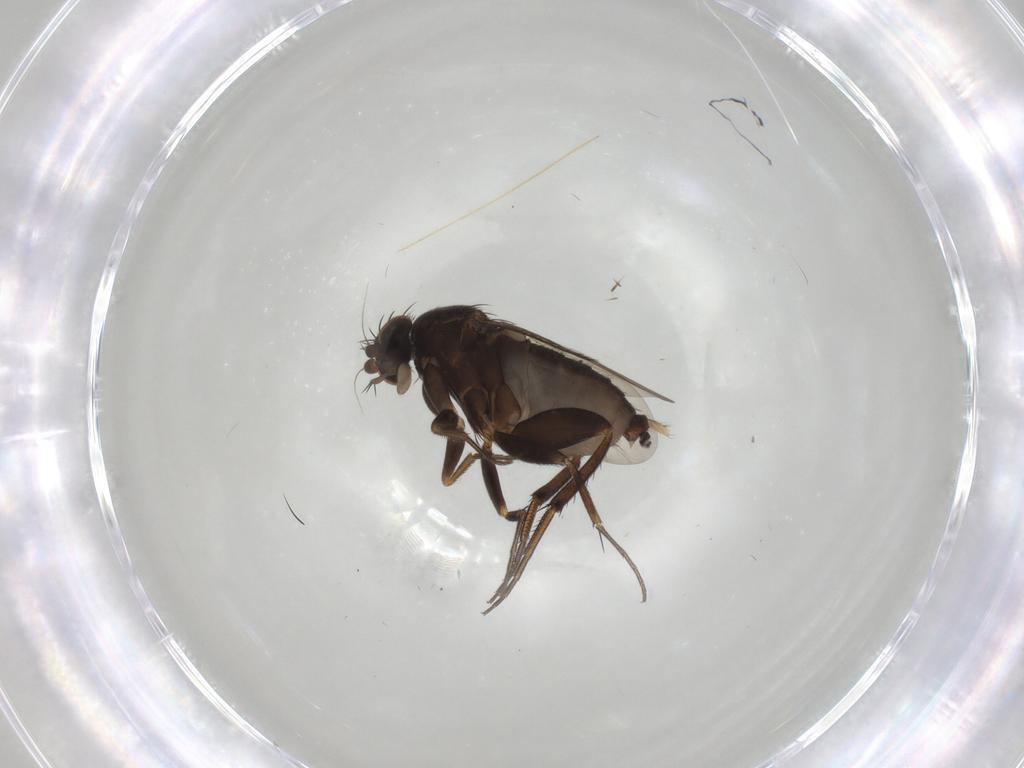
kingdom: Animalia
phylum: Arthropoda
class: Insecta
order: Diptera
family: Phoridae
